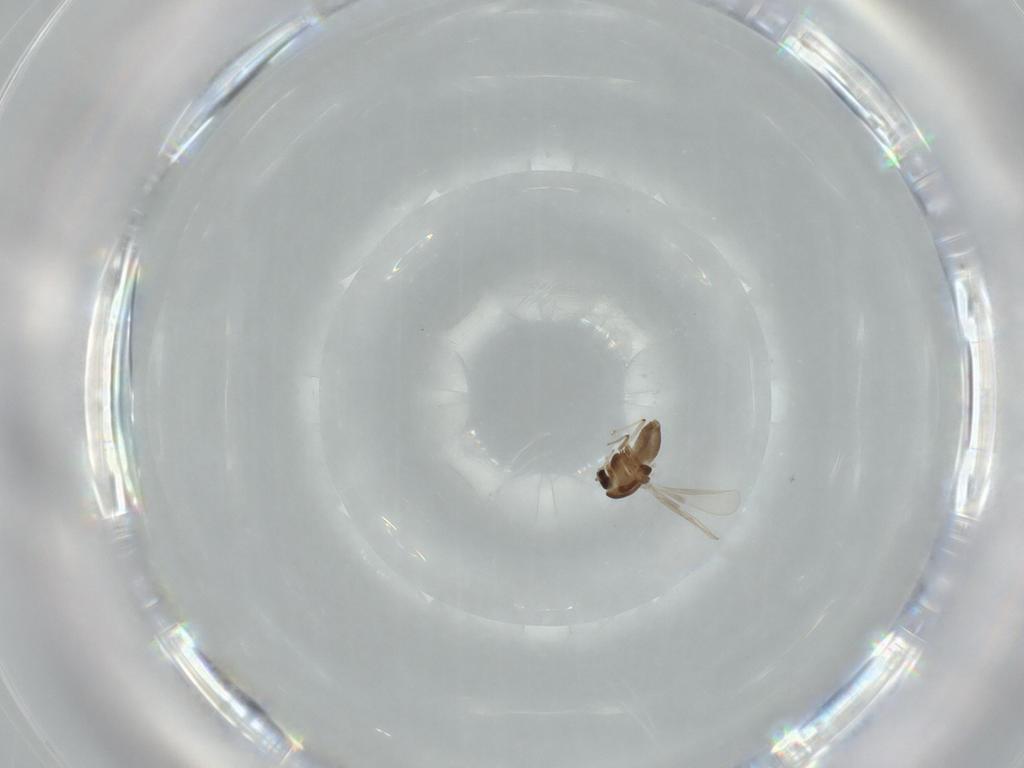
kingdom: Animalia
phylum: Arthropoda
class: Insecta
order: Diptera
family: Chironomidae
